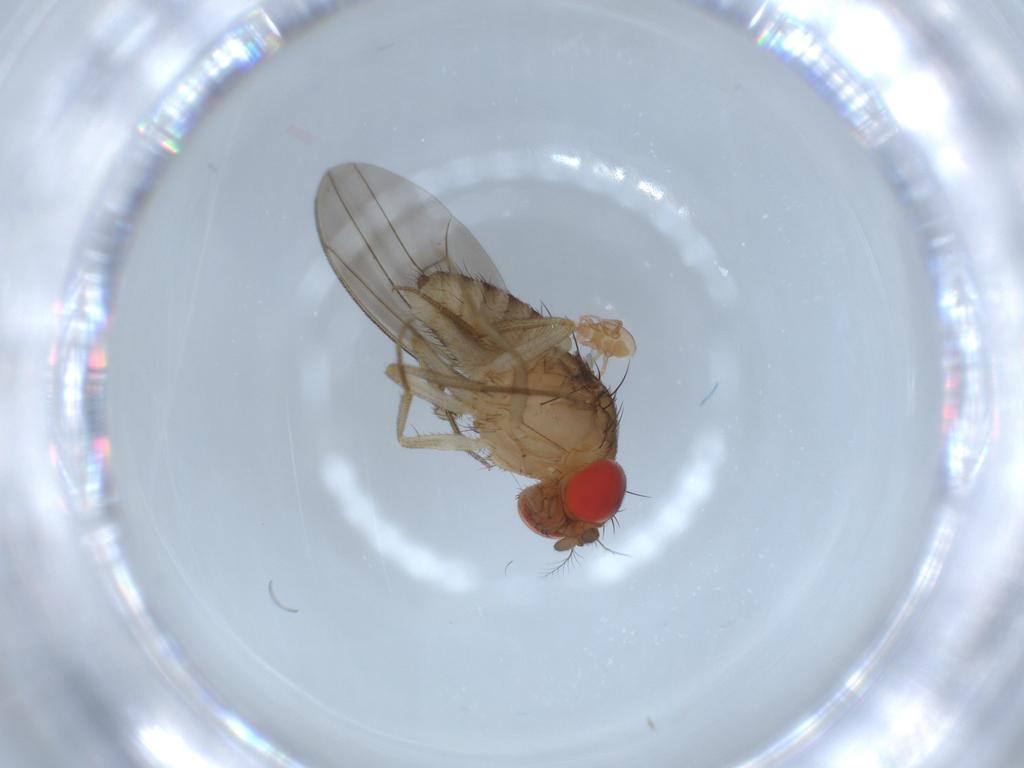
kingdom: Animalia
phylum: Arthropoda
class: Insecta
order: Diptera
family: Drosophilidae
